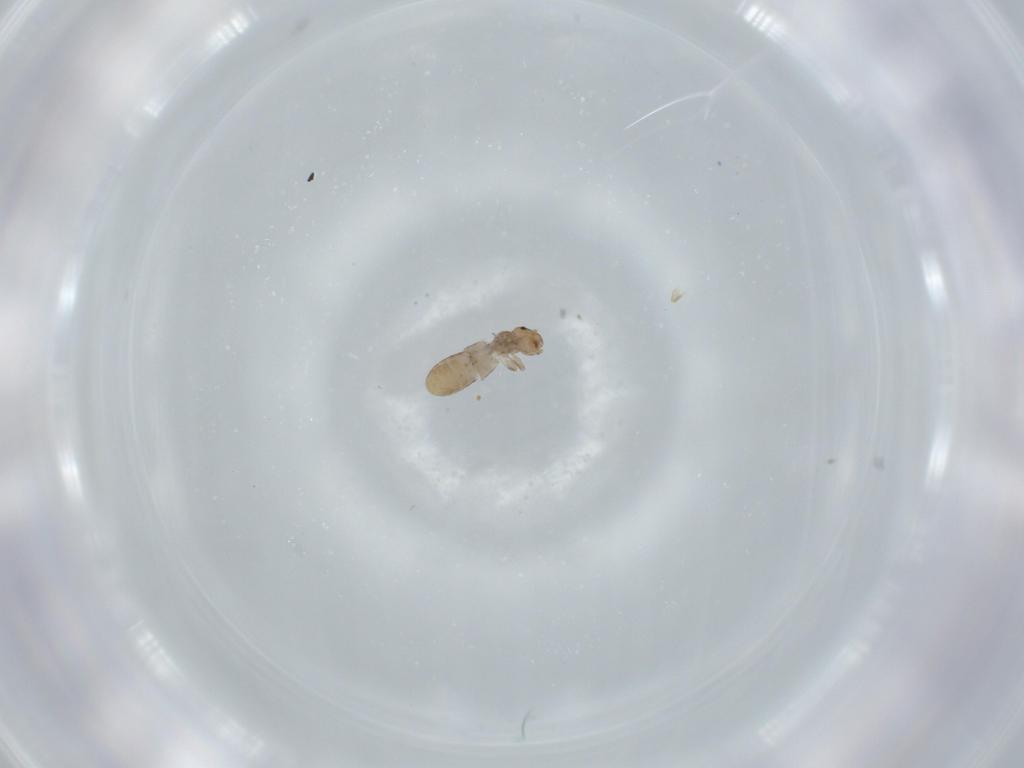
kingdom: Animalia
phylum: Arthropoda
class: Insecta
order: Psocodea
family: Liposcelididae
